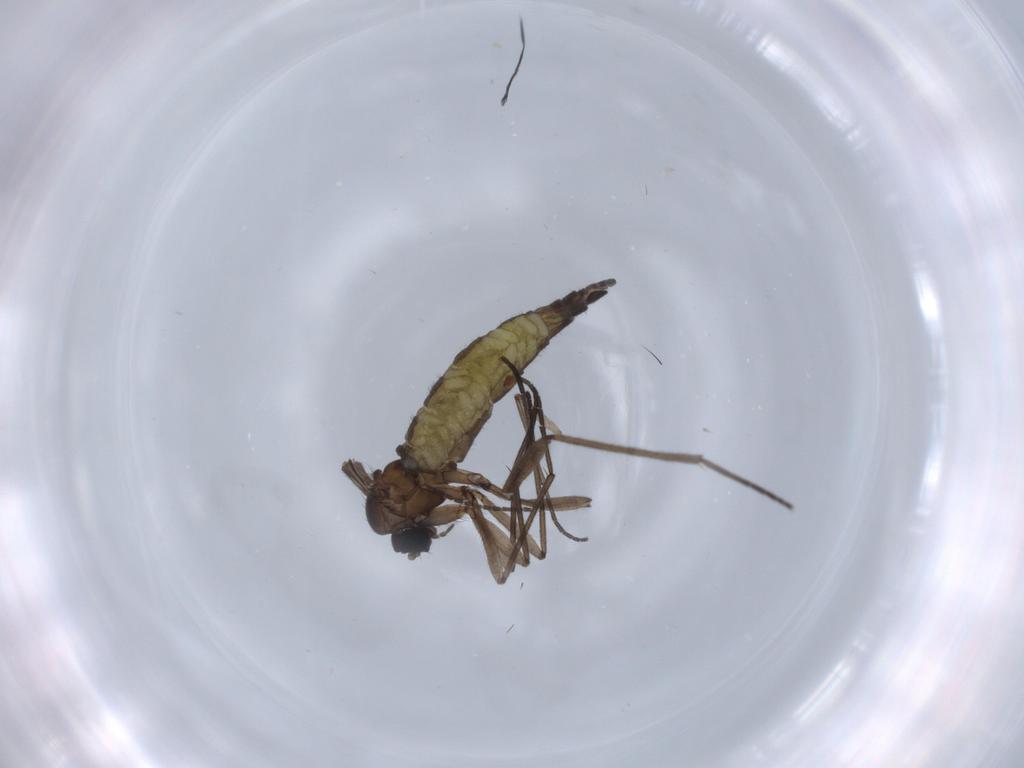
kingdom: Animalia
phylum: Arthropoda
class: Insecta
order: Diptera
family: Sciaridae
